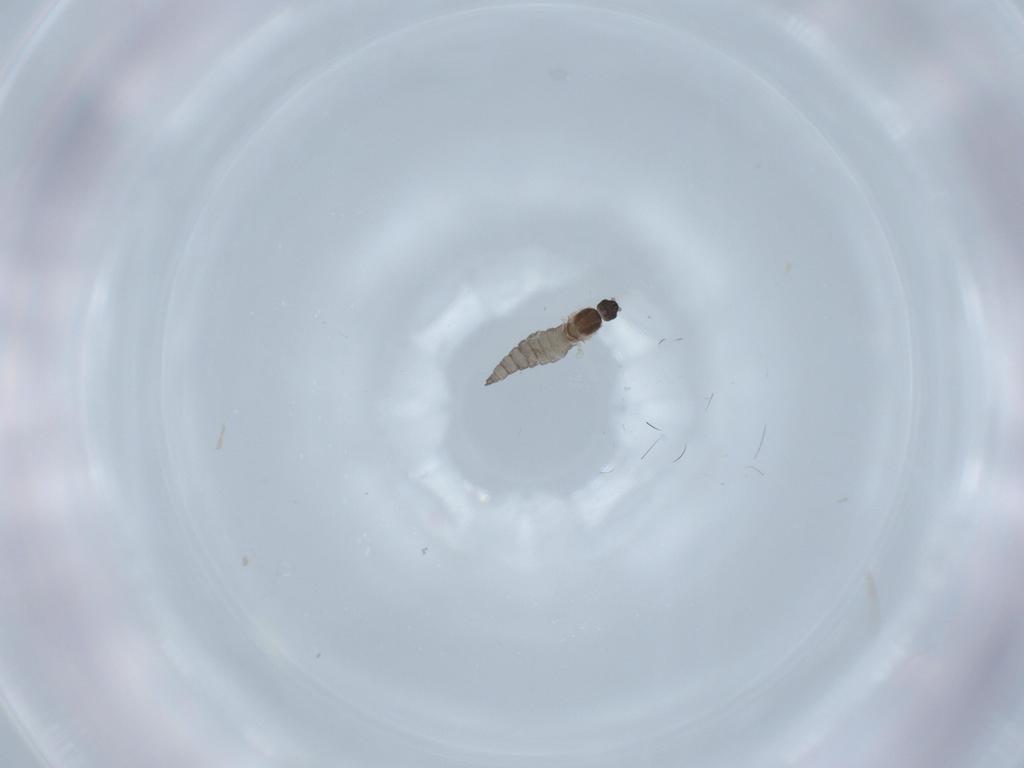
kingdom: Animalia
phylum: Arthropoda
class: Insecta
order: Diptera
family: Cecidomyiidae
